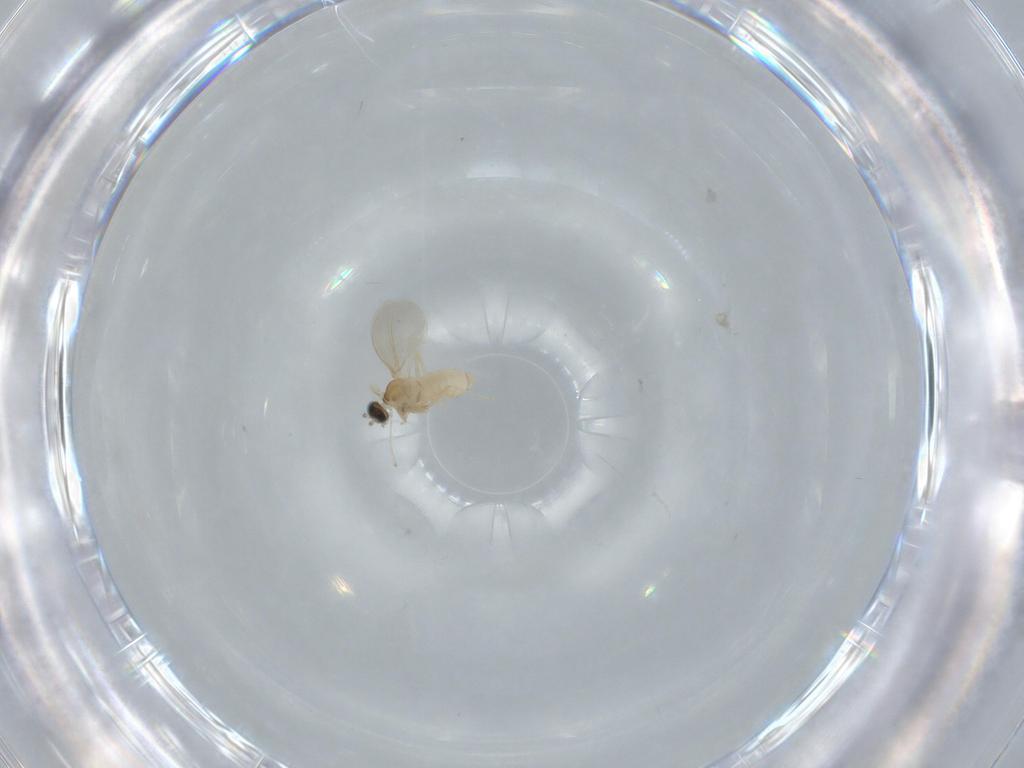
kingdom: Animalia
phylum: Arthropoda
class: Insecta
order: Diptera
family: Cecidomyiidae
